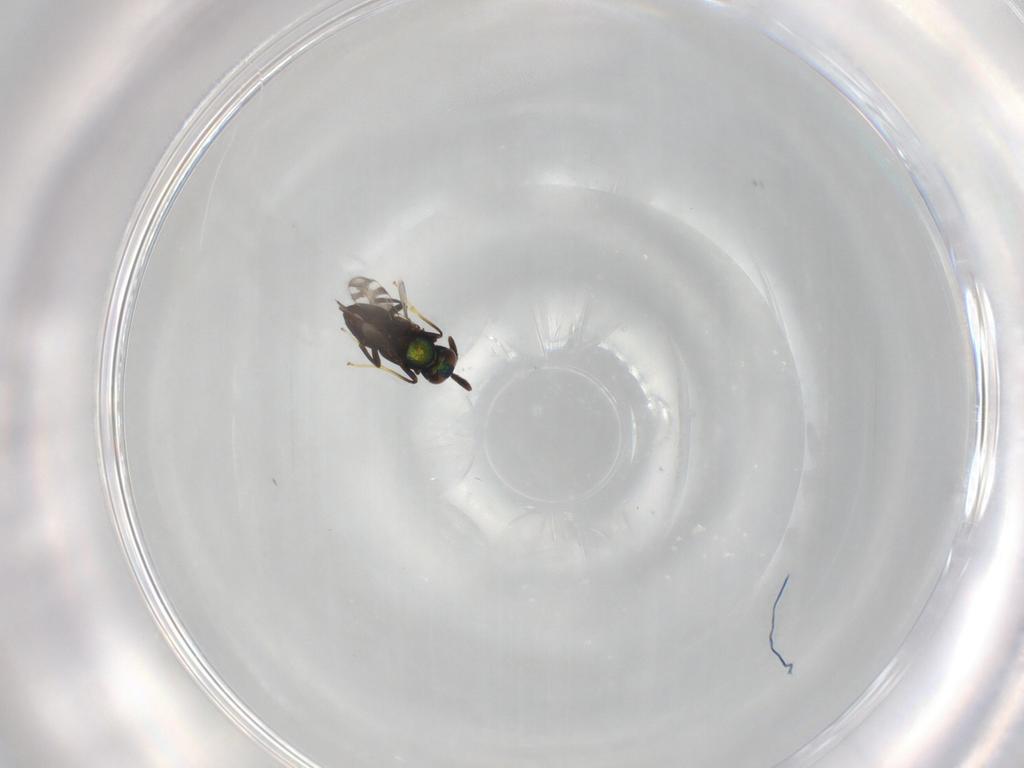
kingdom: Animalia
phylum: Arthropoda
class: Insecta
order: Hymenoptera
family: Encyrtidae
